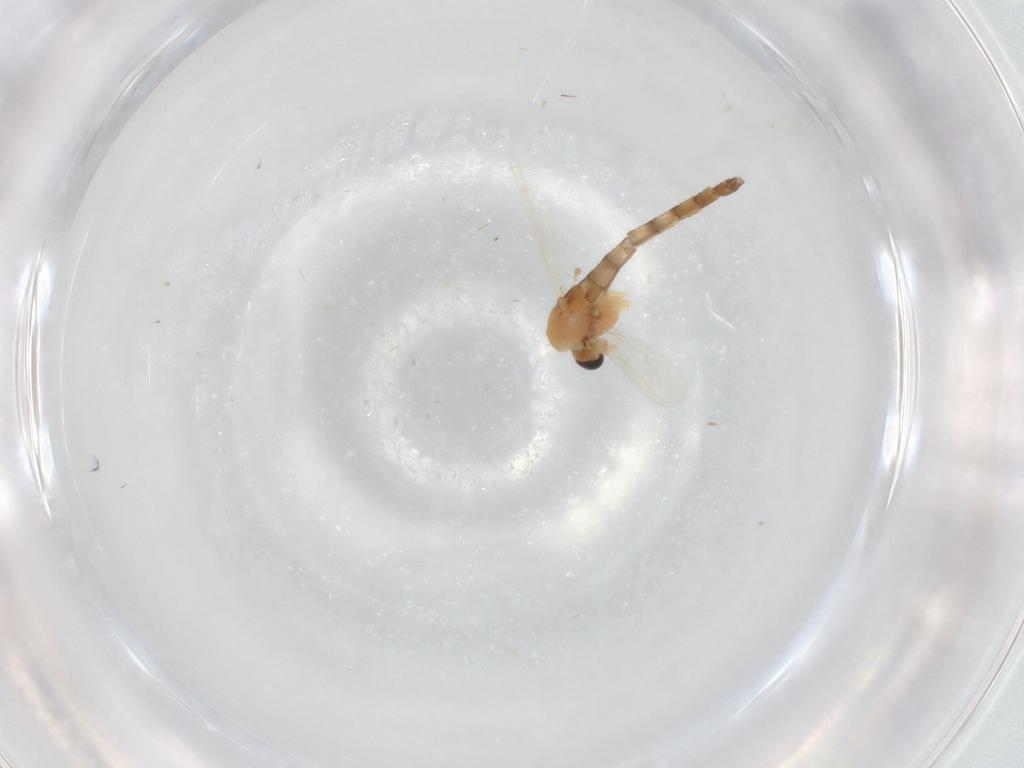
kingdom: Animalia
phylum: Arthropoda
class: Insecta
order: Diptera
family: Chironomidae
